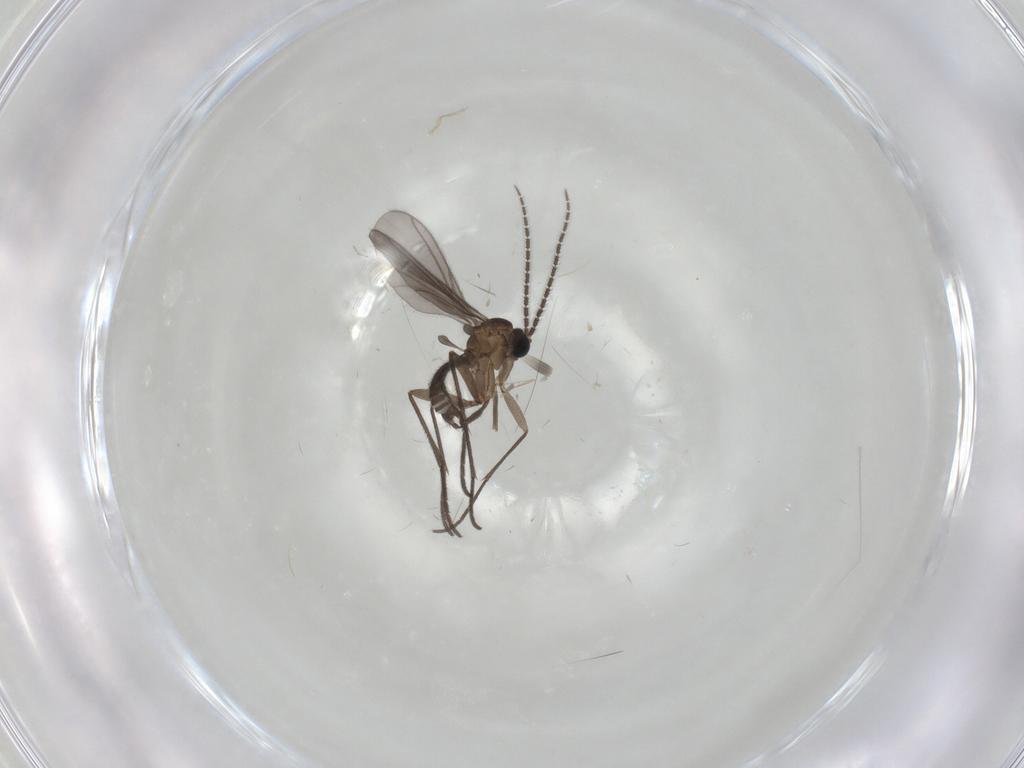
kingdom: Animalia
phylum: Arthropoda
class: Insecta
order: Diptera
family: Sciaridae
